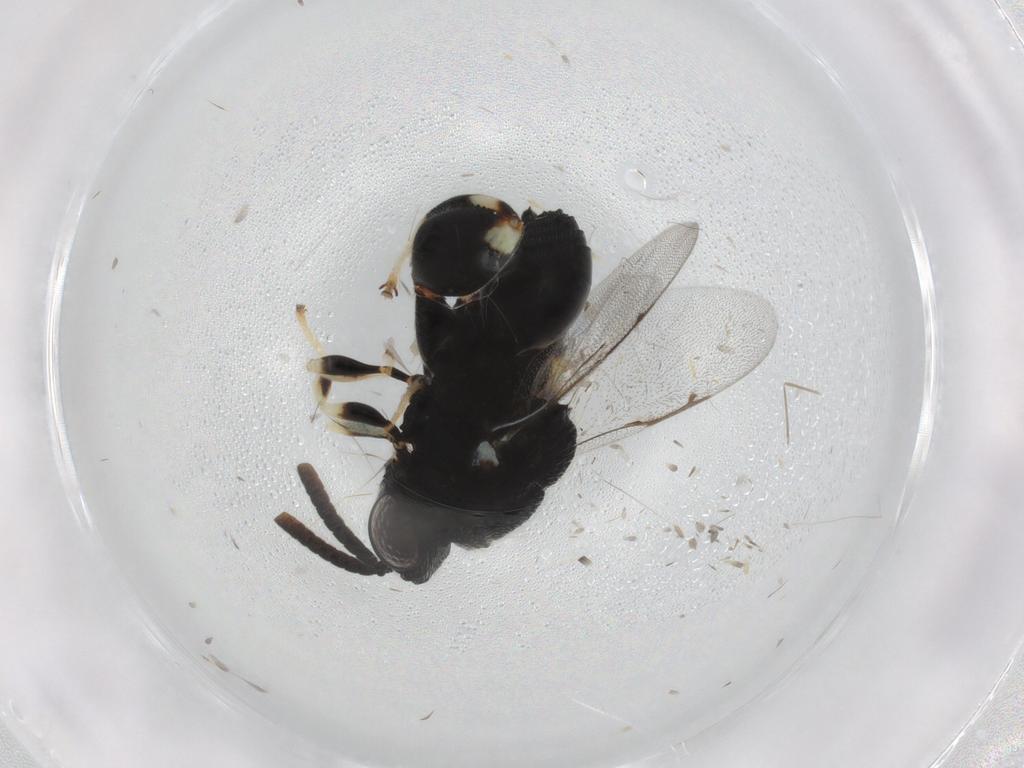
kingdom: Animalia
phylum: Arthropoda
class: Insecta
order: Hymenoptera
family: Chalcididae
